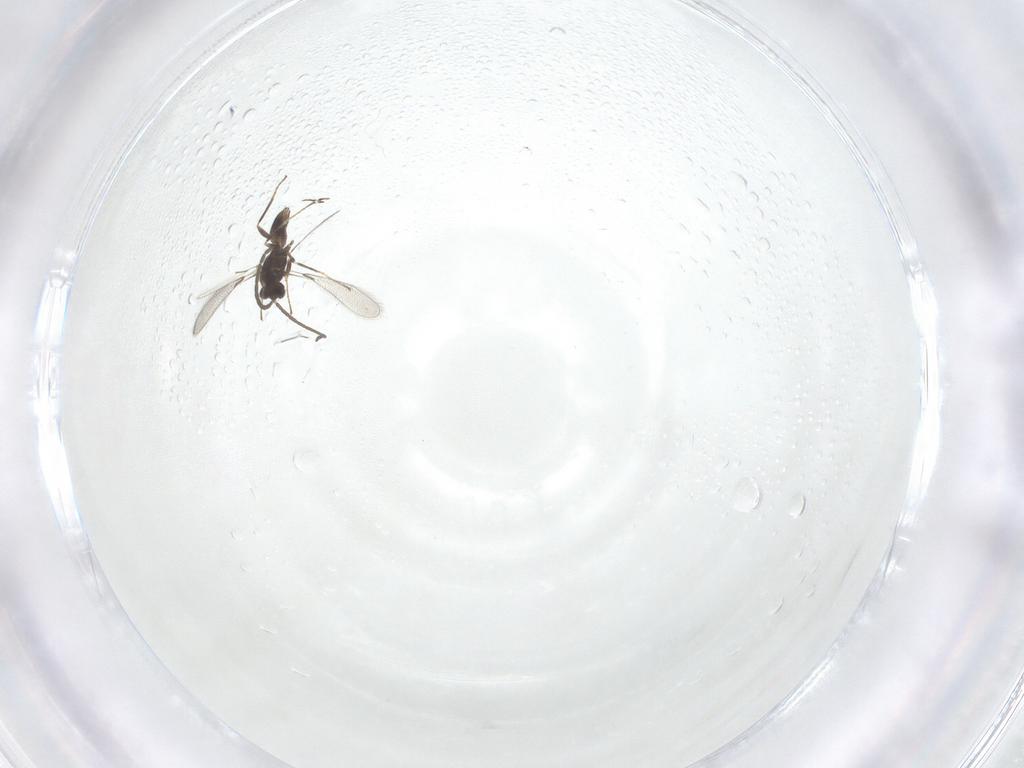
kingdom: Animalia
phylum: Arthropoda
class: Insecta
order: Hymenoptera
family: Mymaridae
